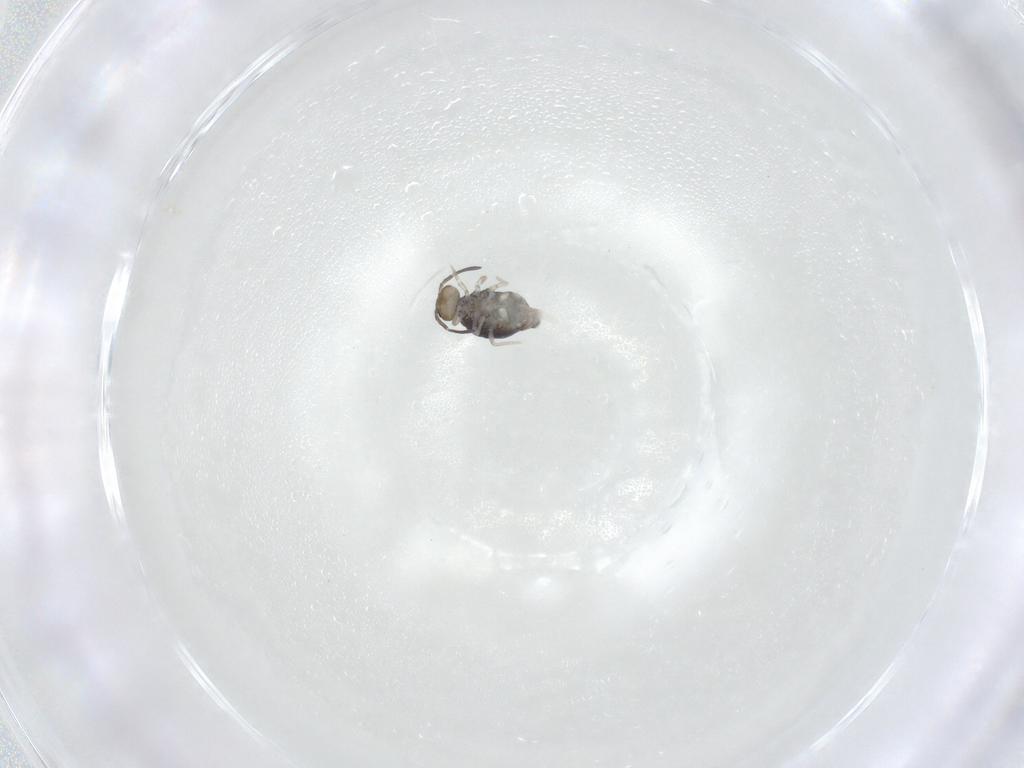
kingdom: Animalia
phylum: Arthropoda
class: Collembola
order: Symphypleona
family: Katiannidae
